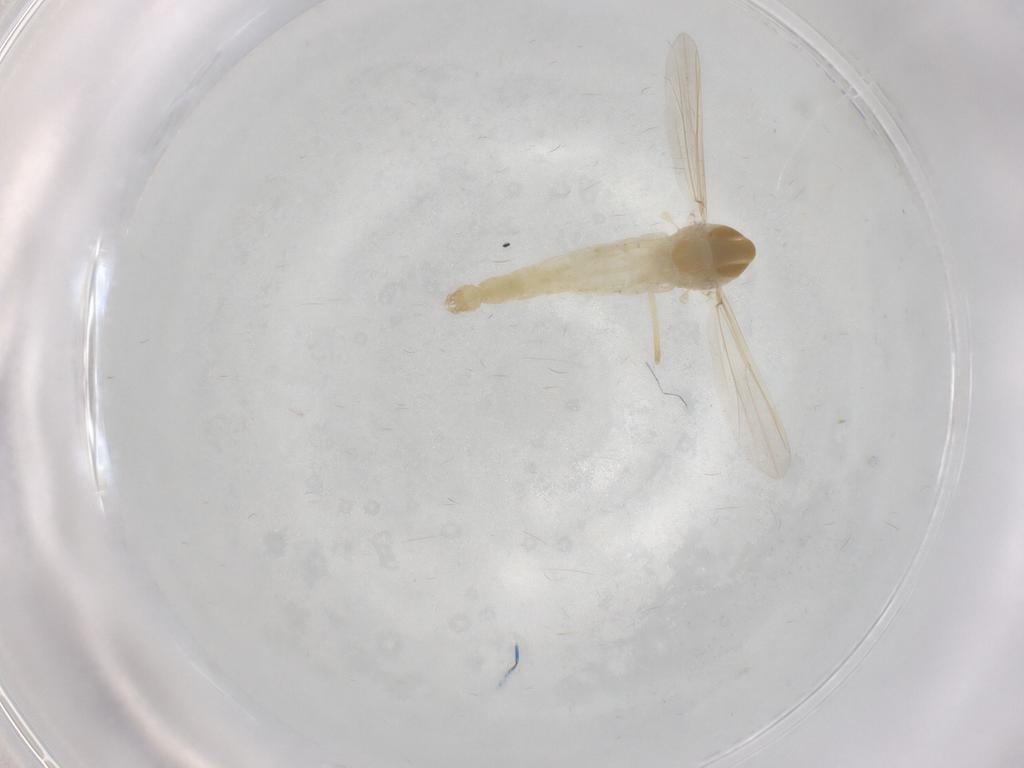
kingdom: Animalia
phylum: Arthropoda
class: Insecta
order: Diptera
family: Chironomidae
